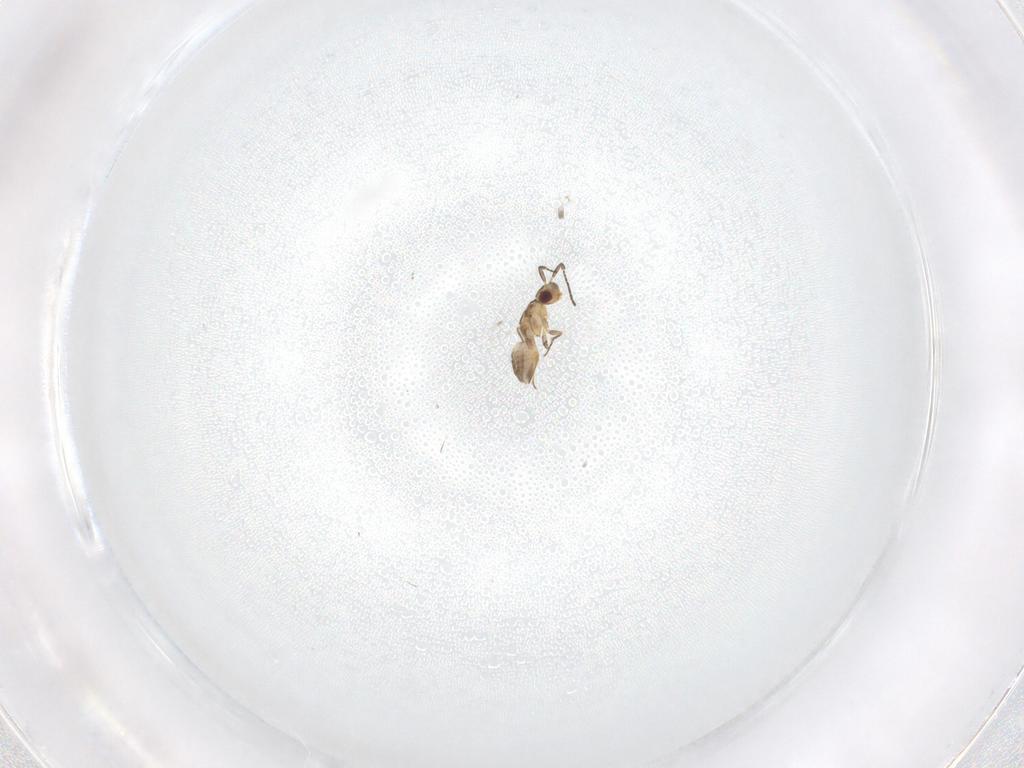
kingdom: Animalia
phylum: Arthropoda
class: Insecta
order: Hymenoptera
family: Mymaridae
